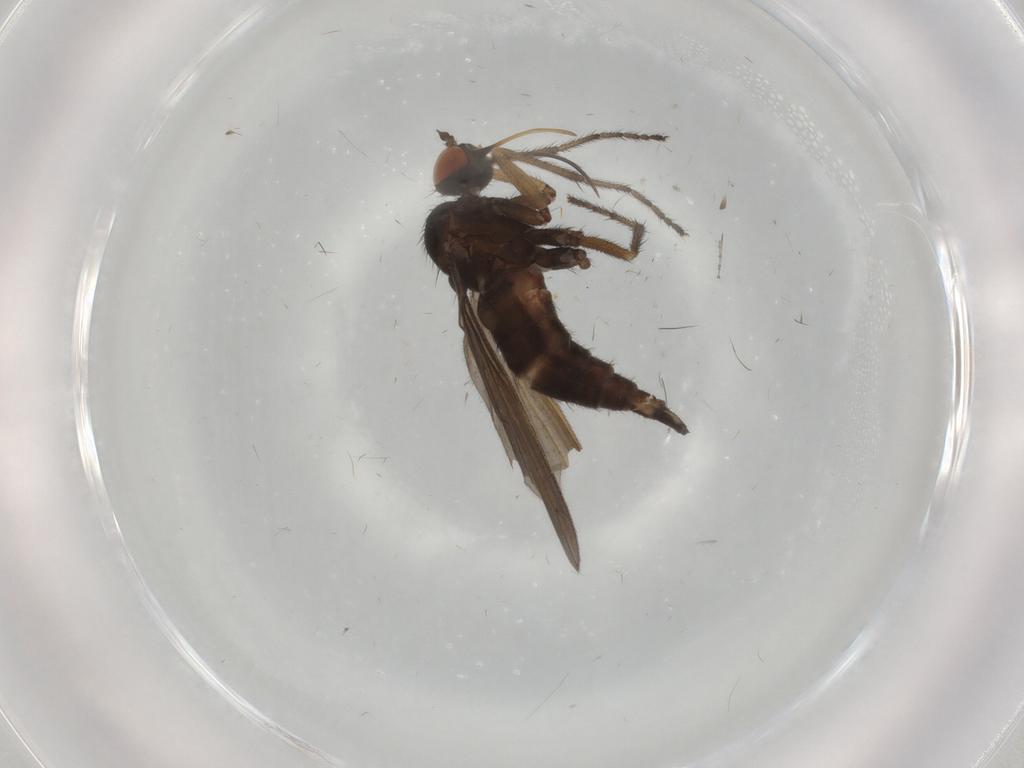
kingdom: Animalia
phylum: Arthropoda
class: Insecta
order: Diptera
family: Empididae
